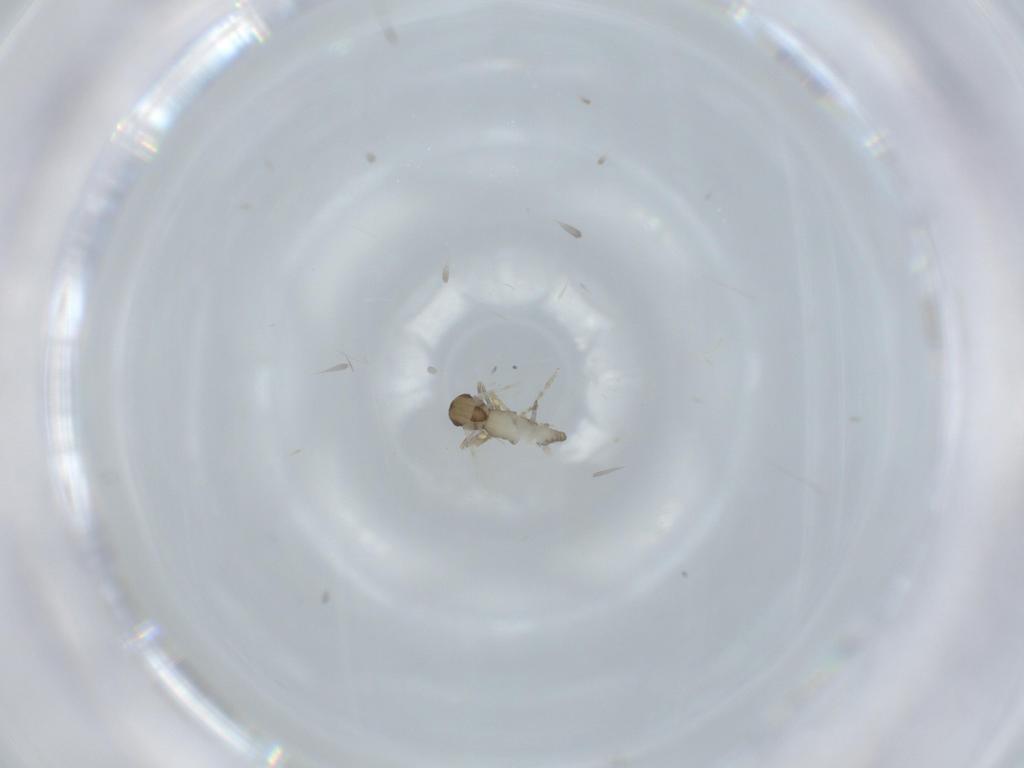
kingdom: Animalia
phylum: Arthropoda
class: Insecta
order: Diptera
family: Ceratopogonidae
